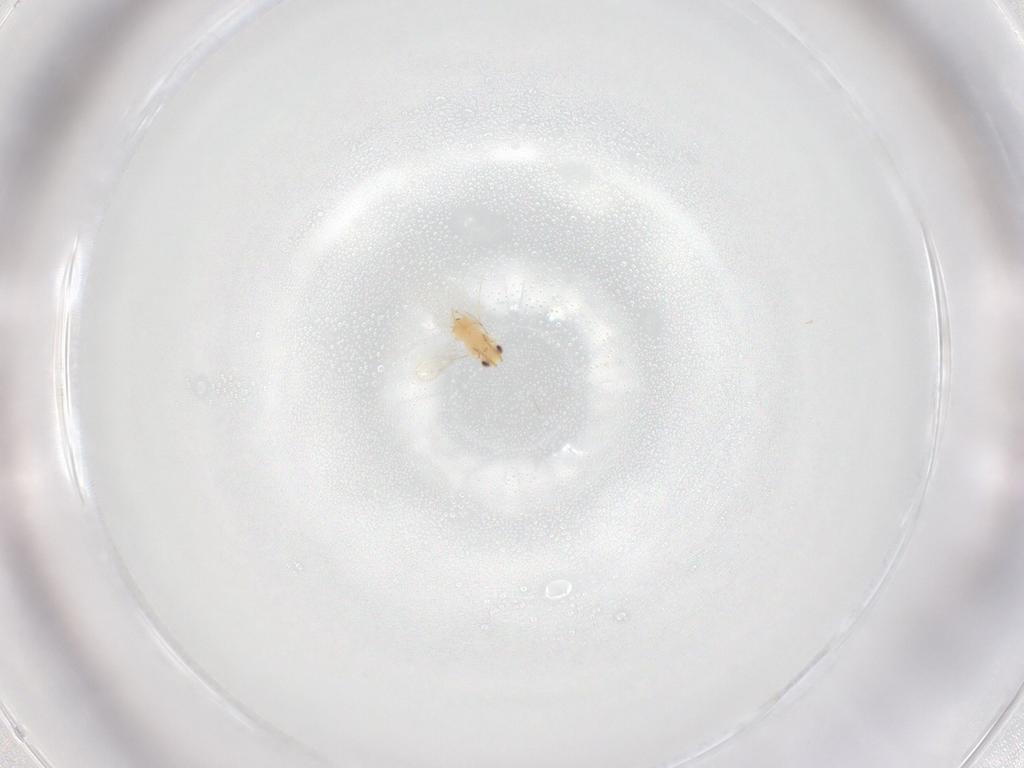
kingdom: Animalia
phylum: Arthropoda
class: Insecta
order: Hymenoptera
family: Aphelinidae
